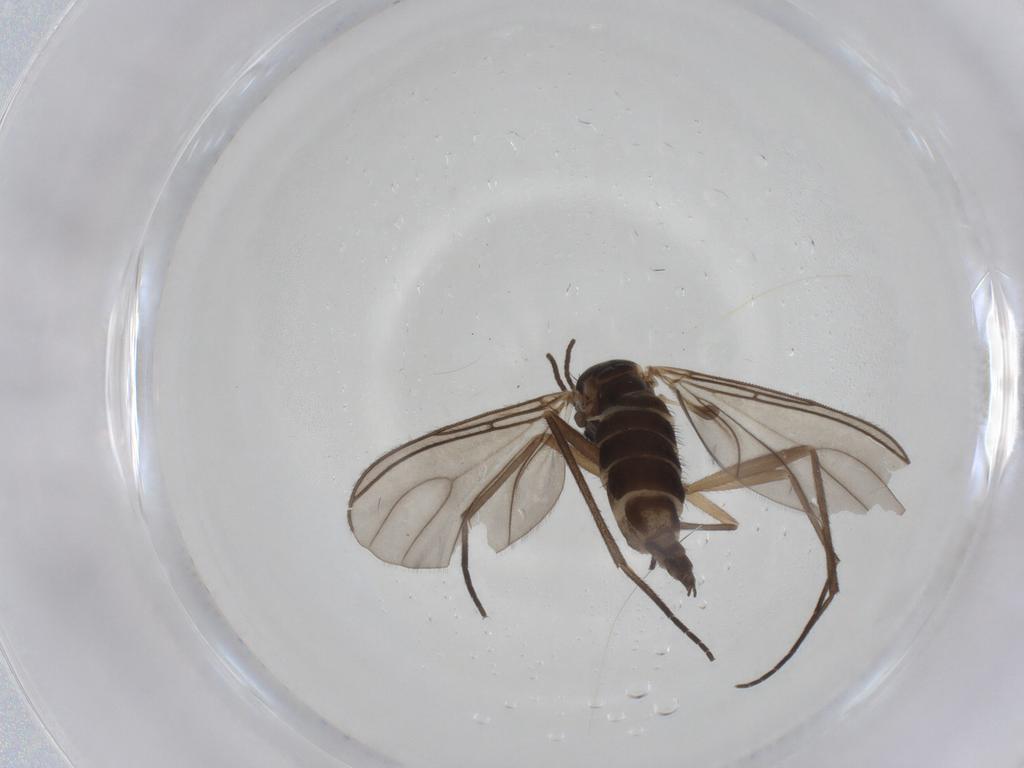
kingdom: Animalia
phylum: Arthropoda
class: Insecta
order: Diptera
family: Sciaridae
